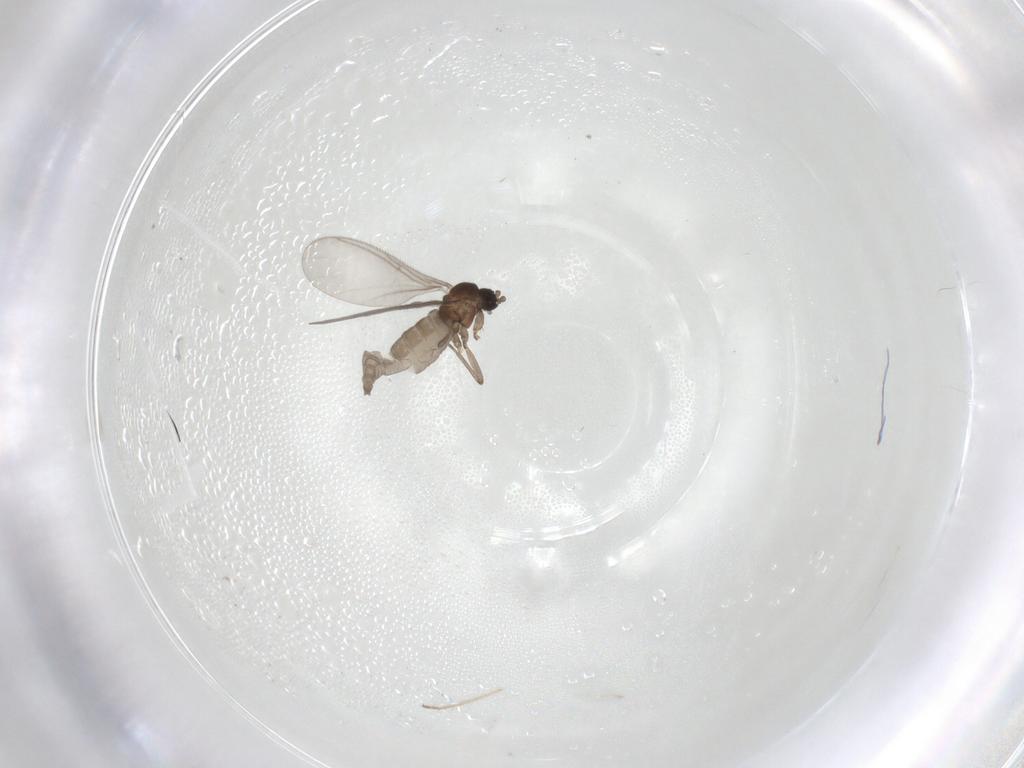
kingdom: Animalia
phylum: Arthropoda
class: Insecta
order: Diptera
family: Chironomidae
